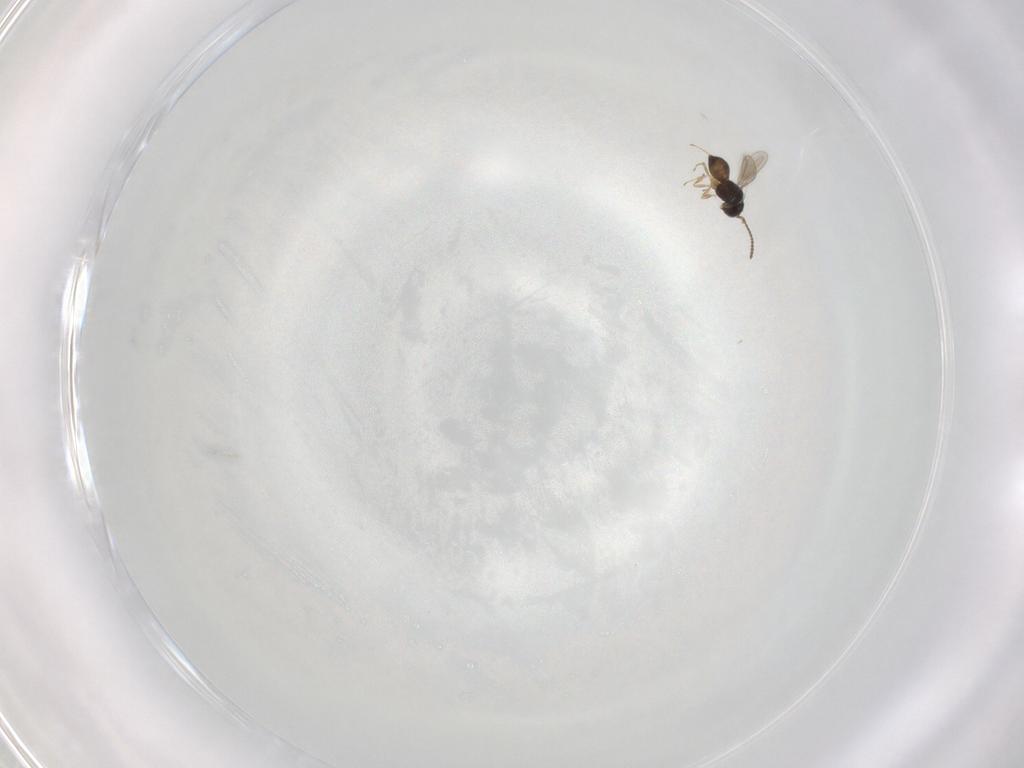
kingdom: Animalia
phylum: Arthropoda
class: Insecta
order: Hymenoptera
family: Scelionidae
